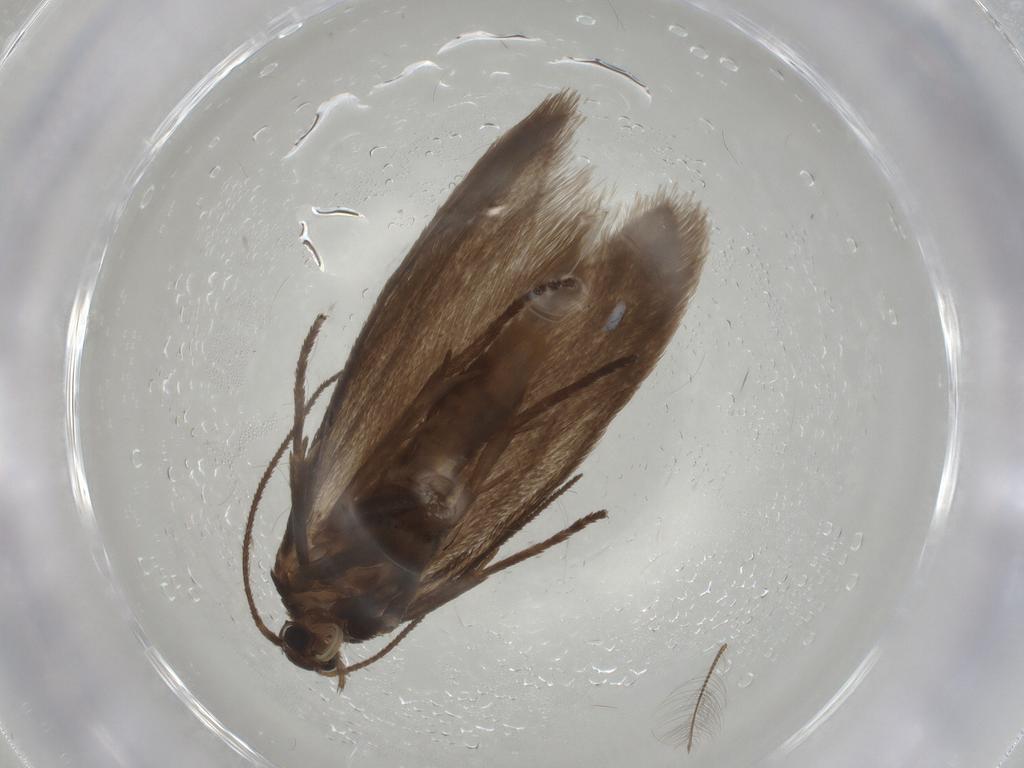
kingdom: Animalia
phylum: Arthropoda
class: Insecta
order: Lepidoptera
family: Limacodidae
